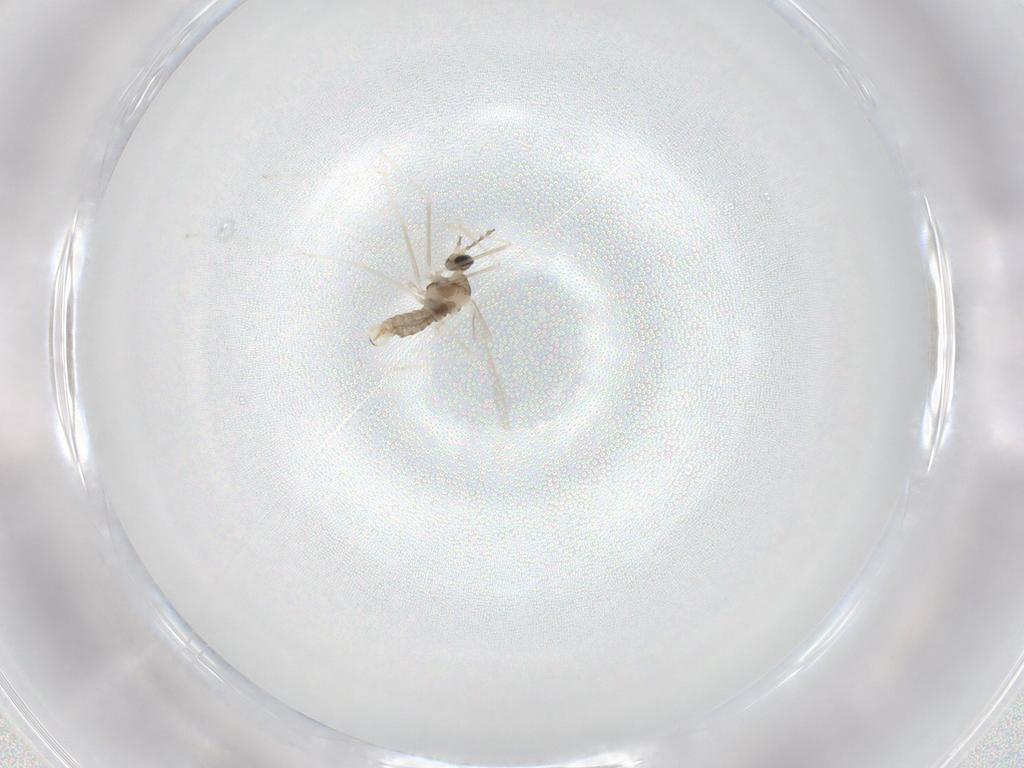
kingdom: Animalia
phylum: Arthropoda
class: Insecta
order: Diptera
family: Cecidomyiidae
